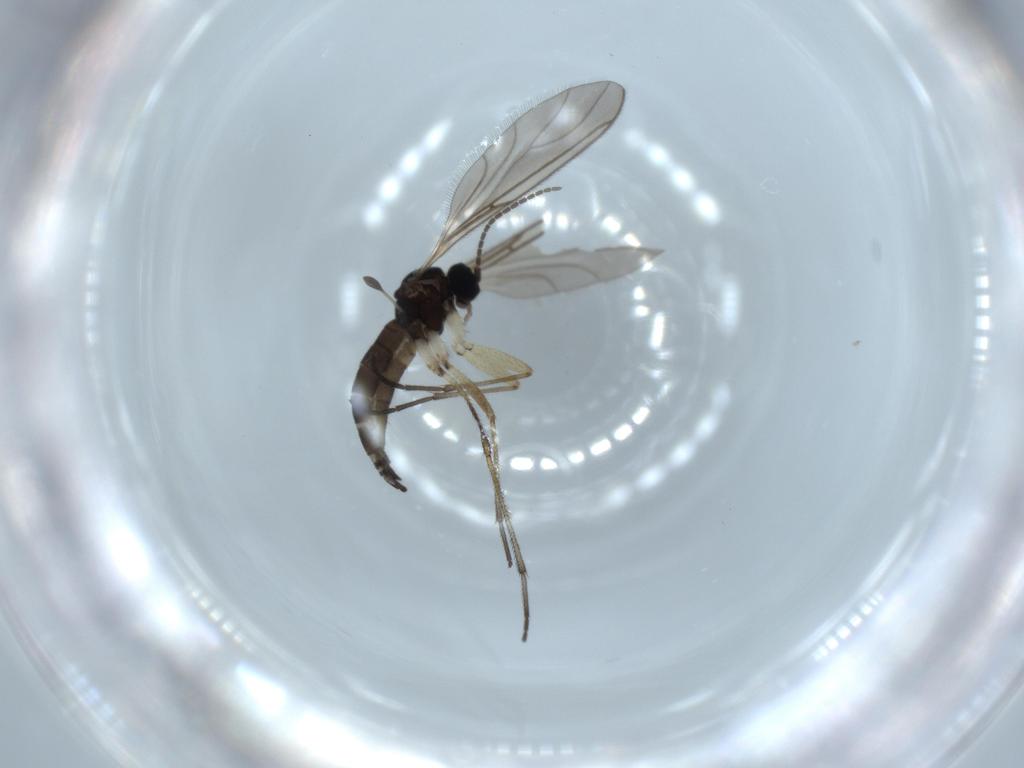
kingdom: Animalia
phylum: Arthropoda
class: Insecta
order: Diptera
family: Sciaridae
